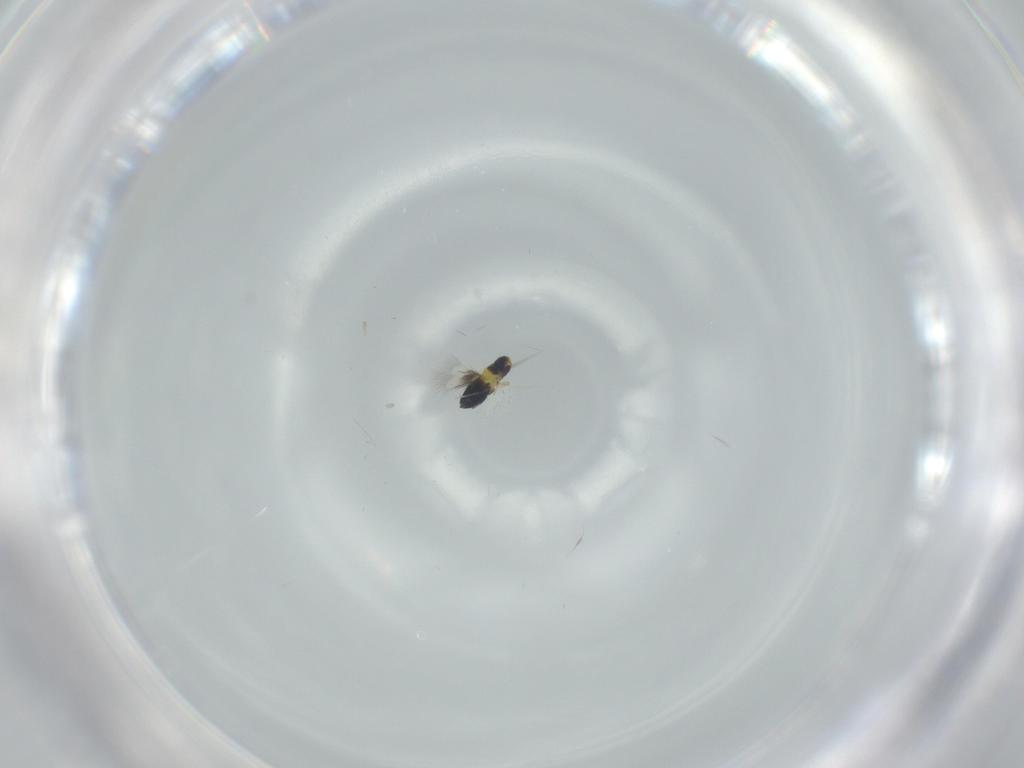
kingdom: Animalia
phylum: Arthropoda
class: Insecta
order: Hymenoptera
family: Signiphoridae
